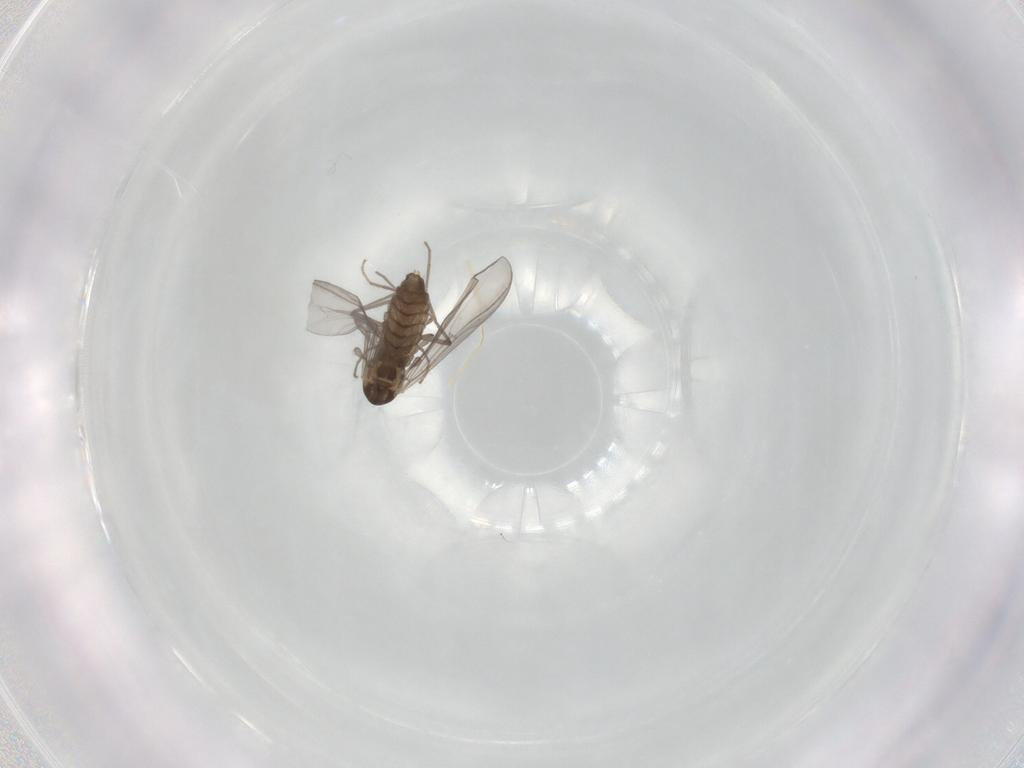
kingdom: Animalia
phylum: Arthropoda
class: Insecta
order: Diptera
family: Chironomidae
